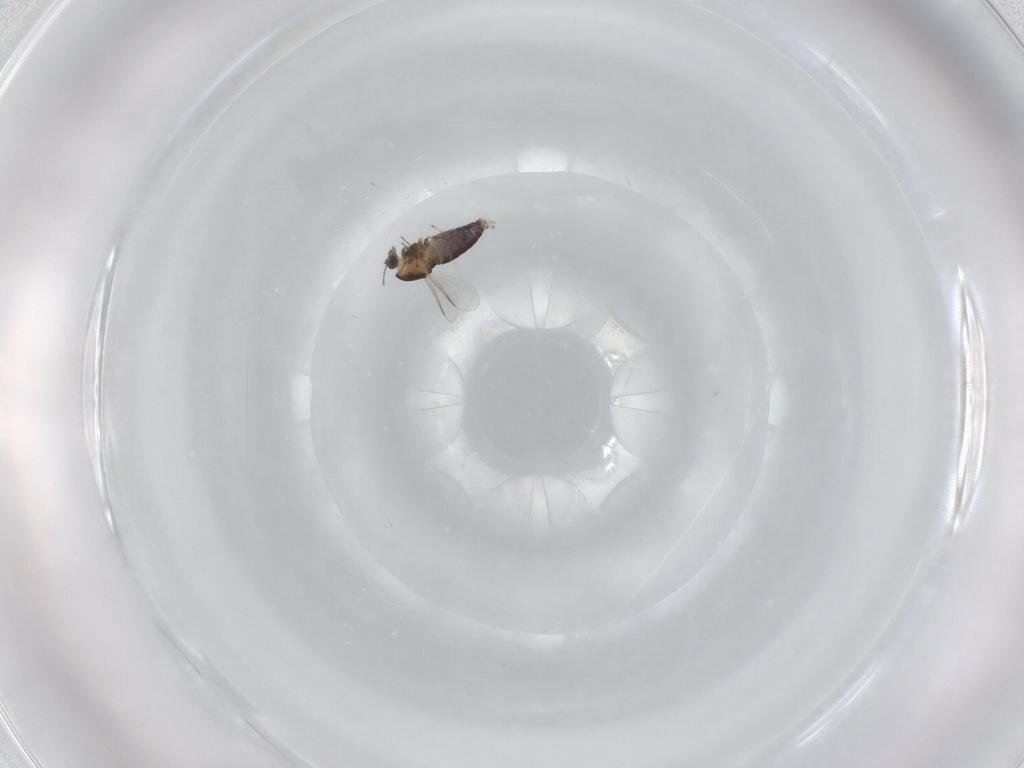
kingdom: Animalia
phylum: Arthropoda
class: Insecta
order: Diptera
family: Chironomidae
